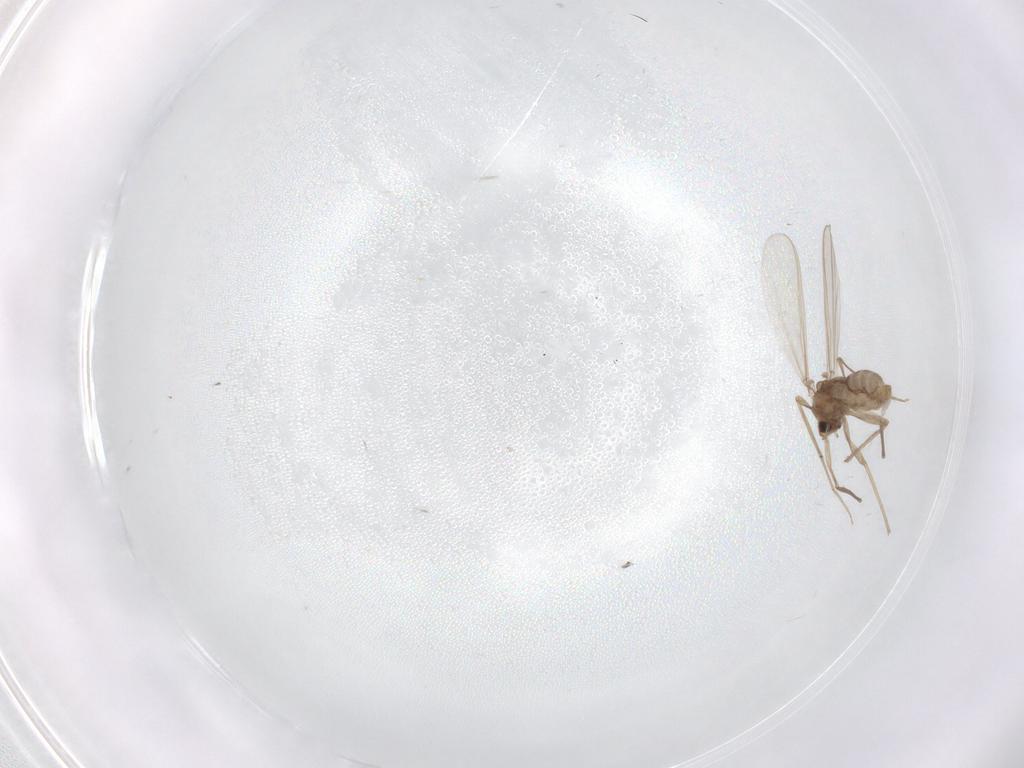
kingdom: Animalia
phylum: Arthropoda
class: Insecta
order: Diptera
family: Chironomidae
